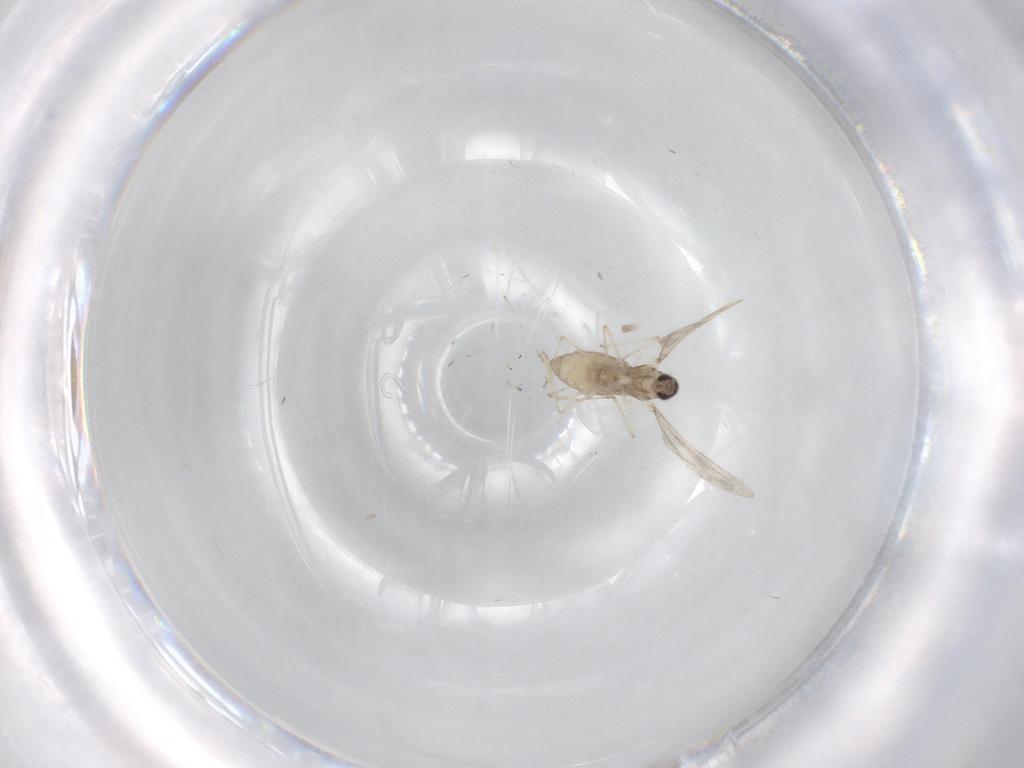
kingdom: Animalia
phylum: Arthropoda
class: Insecta
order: Diptera
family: Cecidomyiidae
